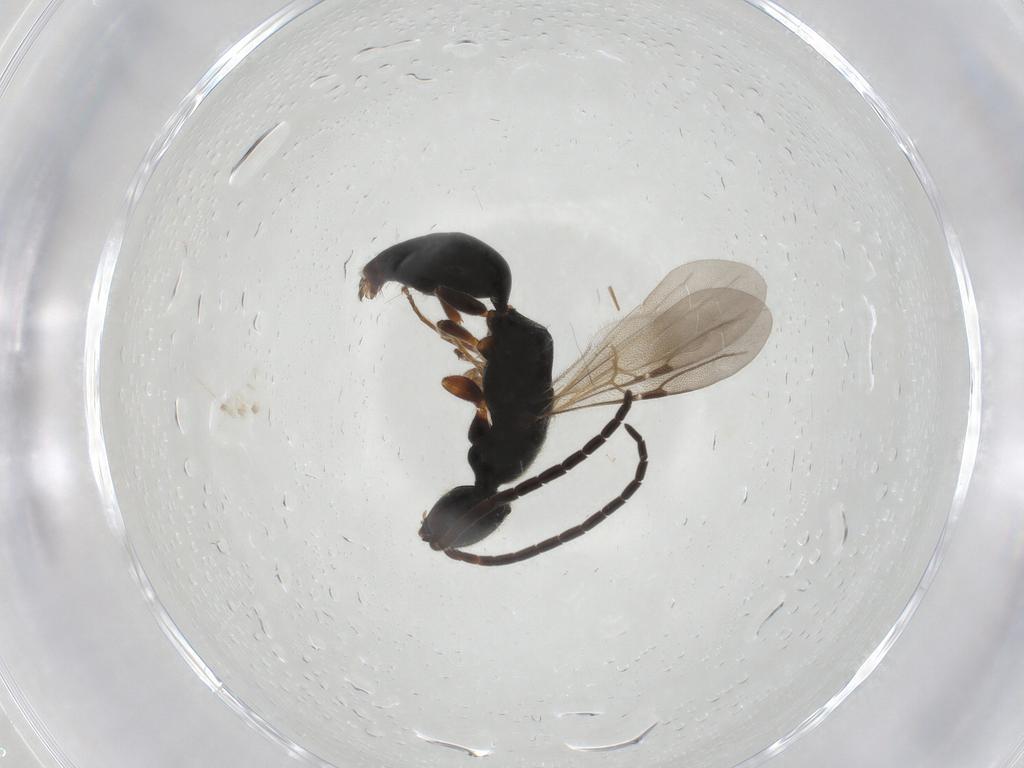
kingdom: Animalia
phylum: Arthropoda
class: Insecta
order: Hymenoptera
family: Bethylidae
